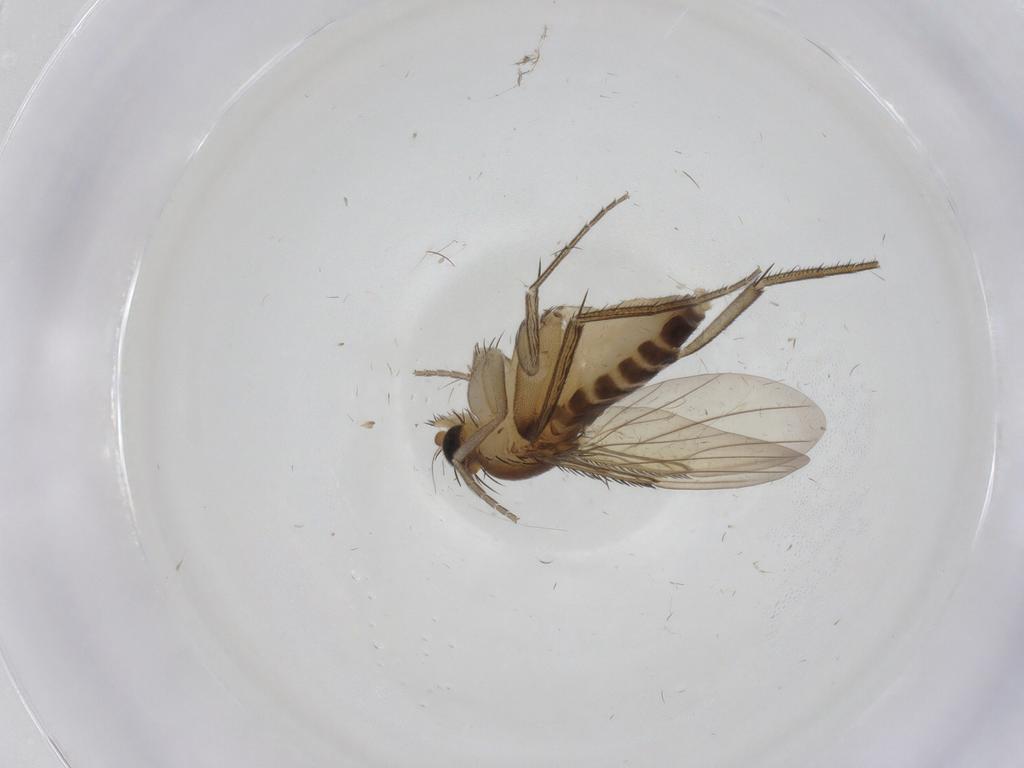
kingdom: Animalia
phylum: Arthropoda
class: Insecta
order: Diptera
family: Phoridae
